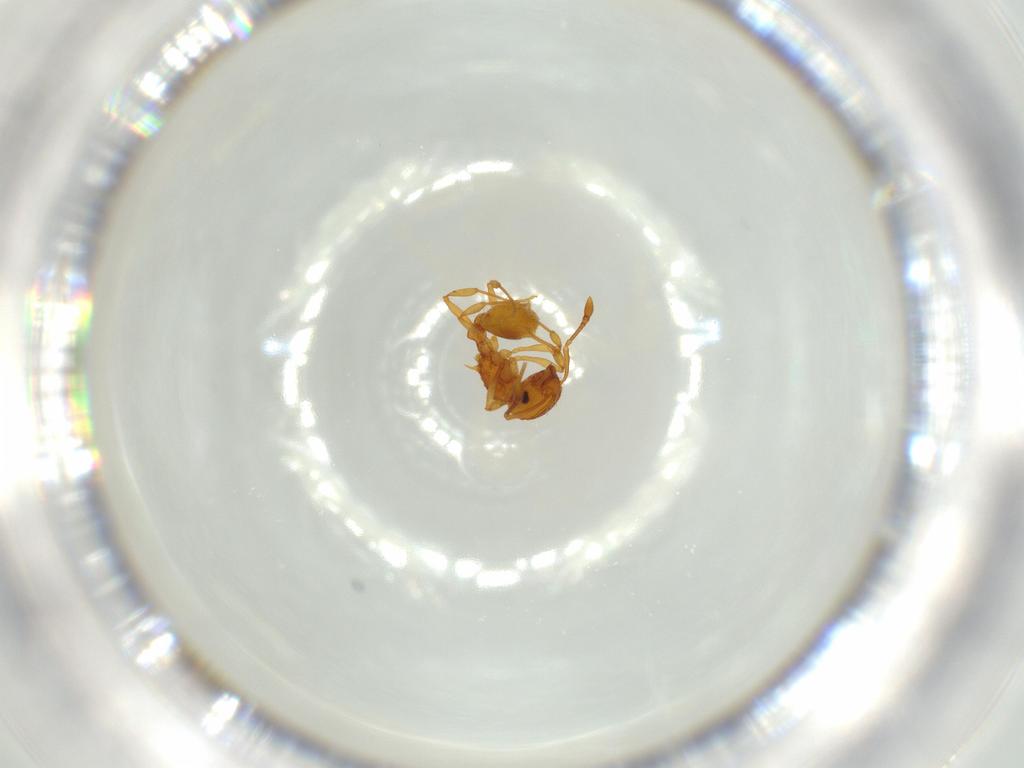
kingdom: Animalia
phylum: Arthropoda
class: Insecta
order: Hymenoptera
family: Formicidae
